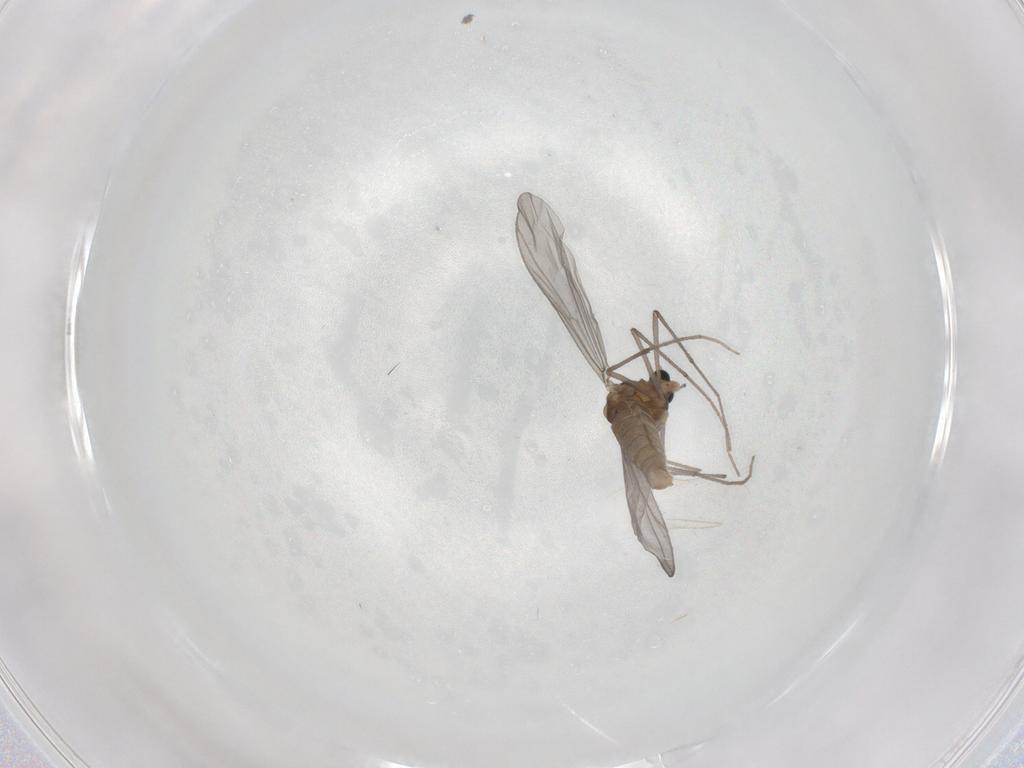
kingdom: Animalia
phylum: Arthropoda
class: Insecta
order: Diptera
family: Chironomidae
